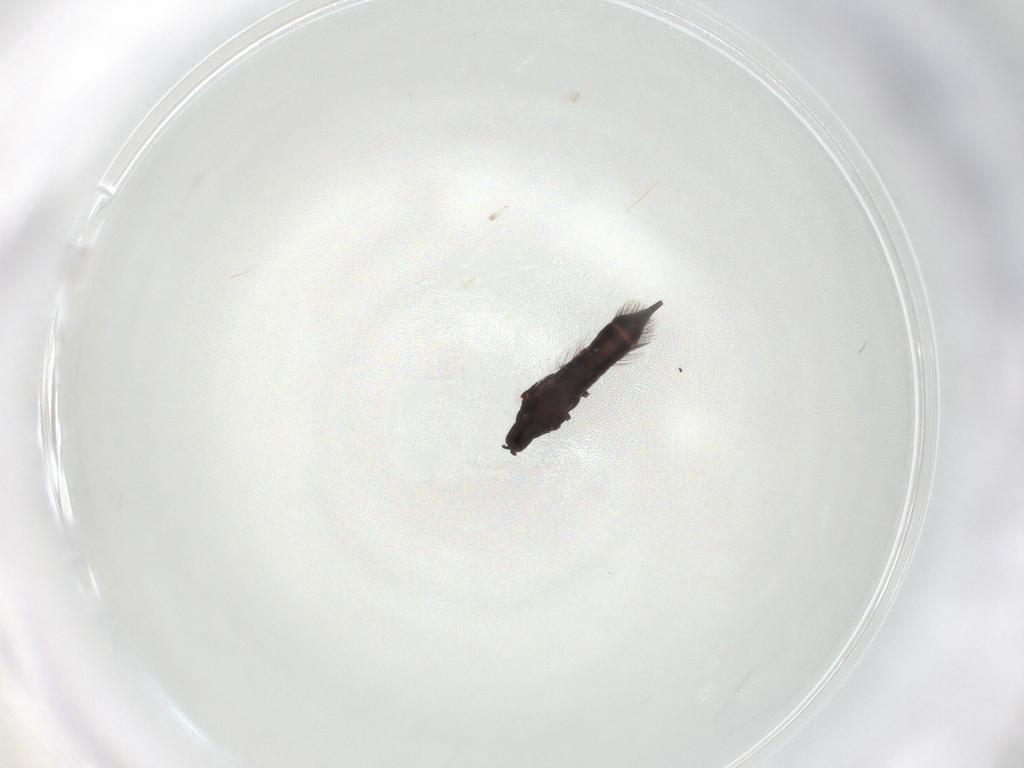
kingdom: Animalia
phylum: Arthropoda
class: Insecta
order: Thysanoptera
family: Phlaeothripidae
